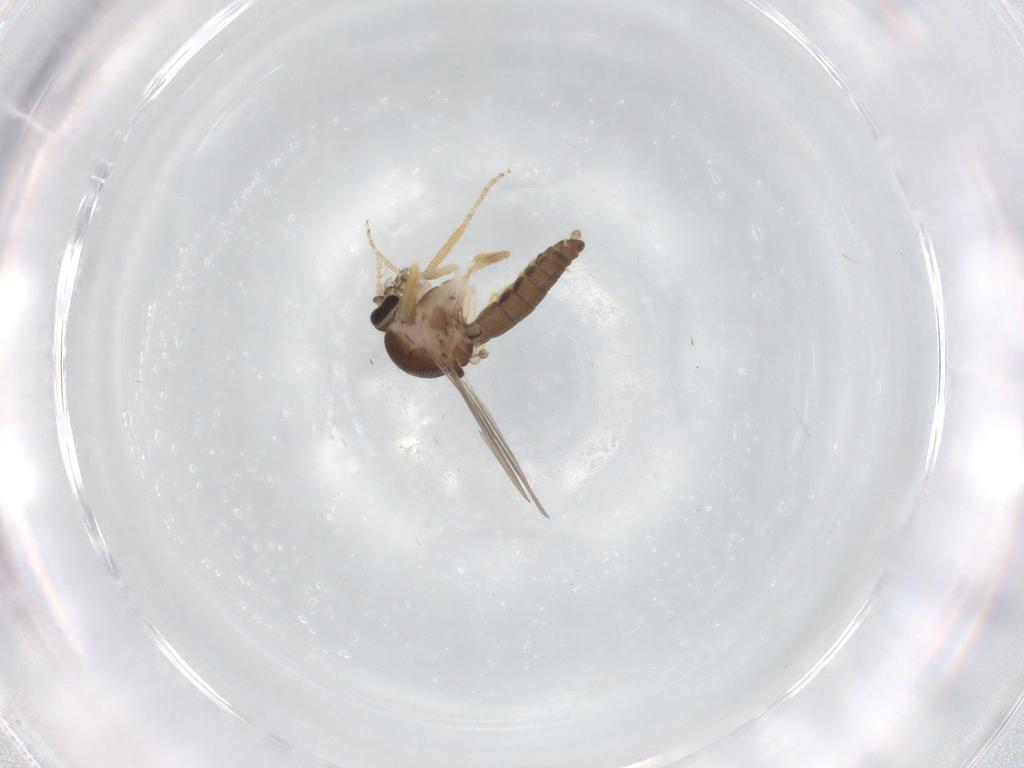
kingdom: Animalia
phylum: Arthropoda
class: Insecta
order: Diptera
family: Ceratopogonidae
